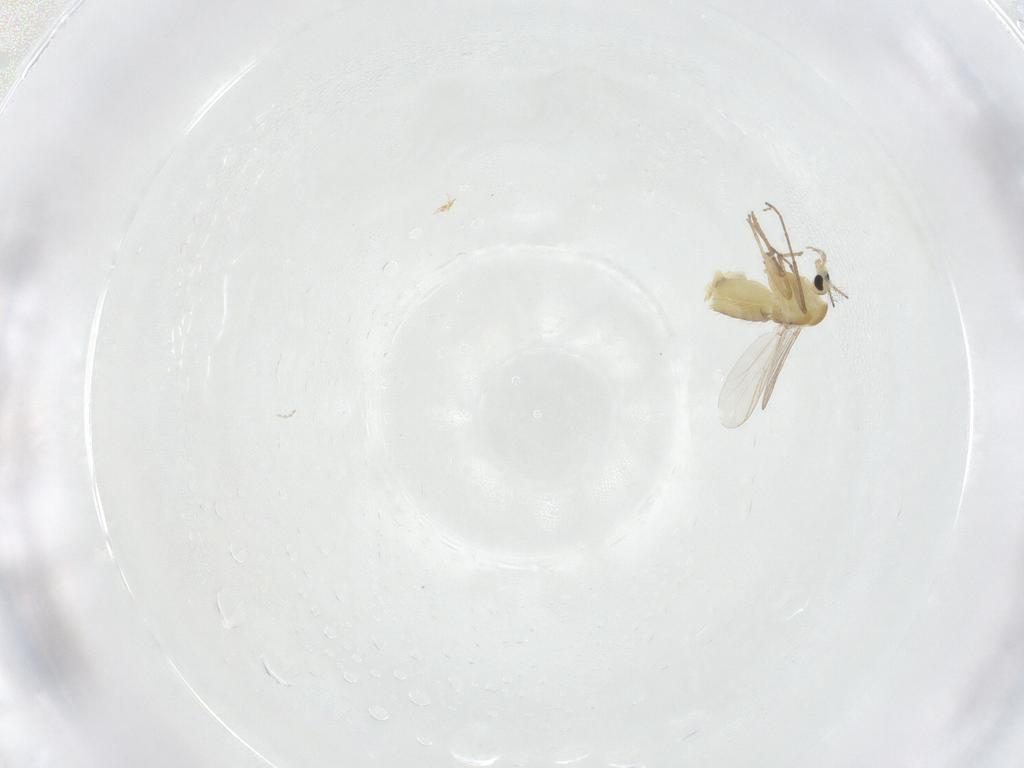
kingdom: Animalia
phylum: Arthropoda
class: Insecta
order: Diptera
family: Chironomidae
